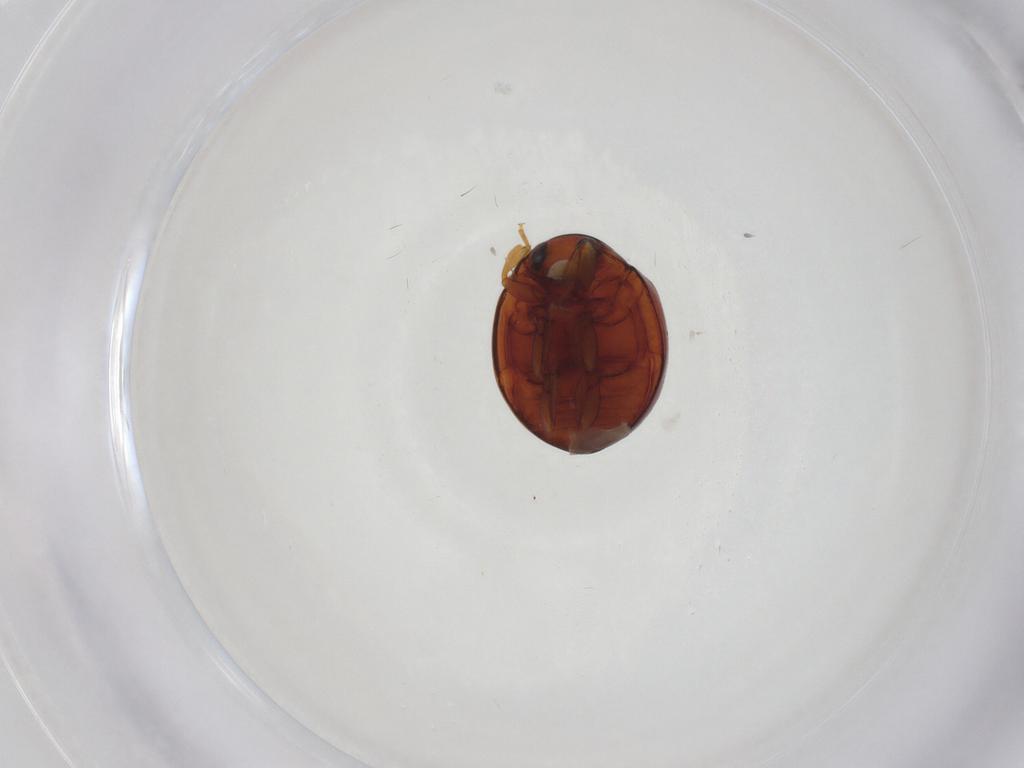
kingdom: Animalia
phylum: Arthropoda
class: Insecta
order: Coleoptera
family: Coccinellidae
